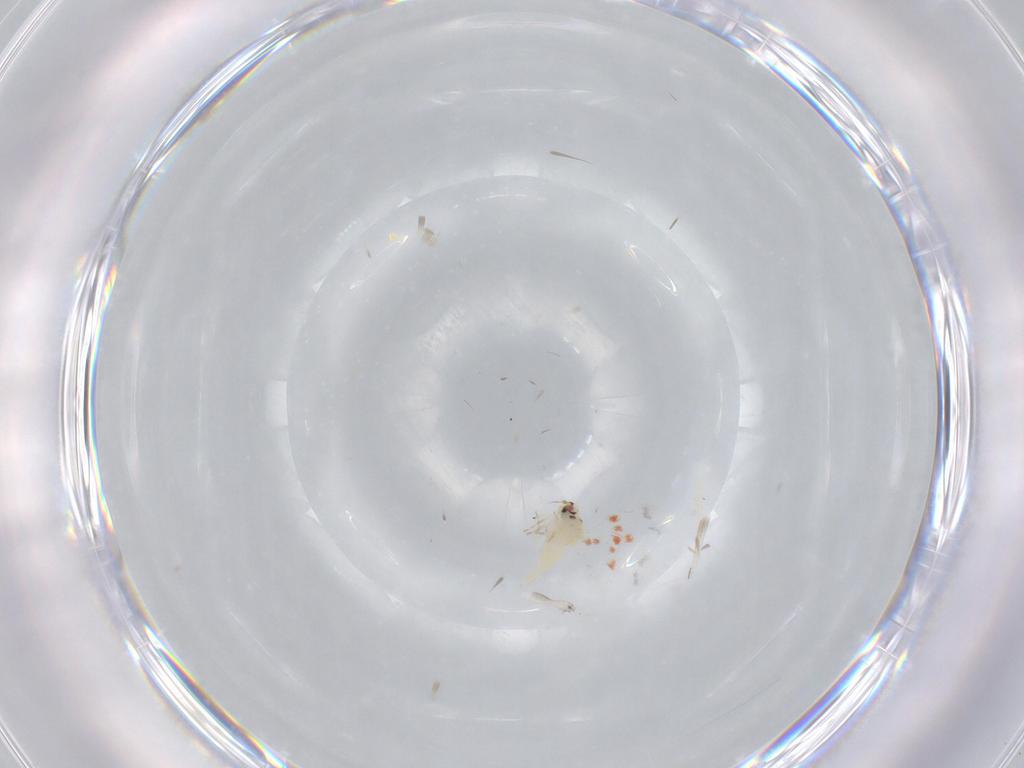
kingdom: Animalia
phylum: Arthropoda
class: Insecta
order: Hemiptera
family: Aleyrodidae
